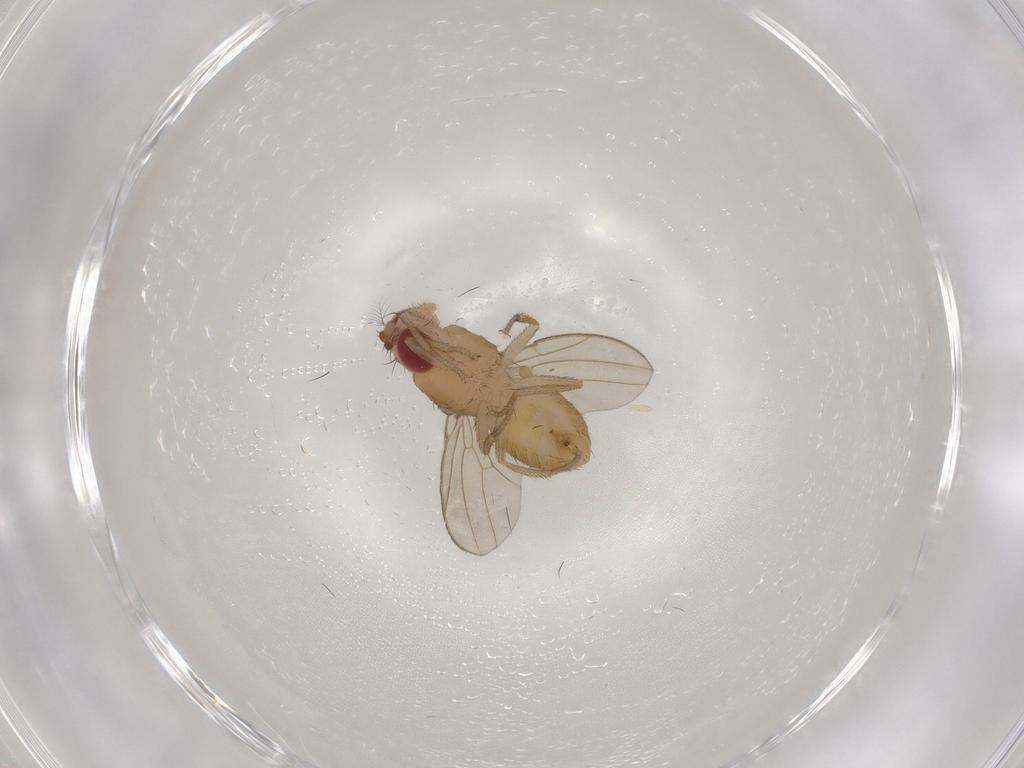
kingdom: Animalia
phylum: Arthropoda
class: Insecta
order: Diptera
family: Drosophilidae
